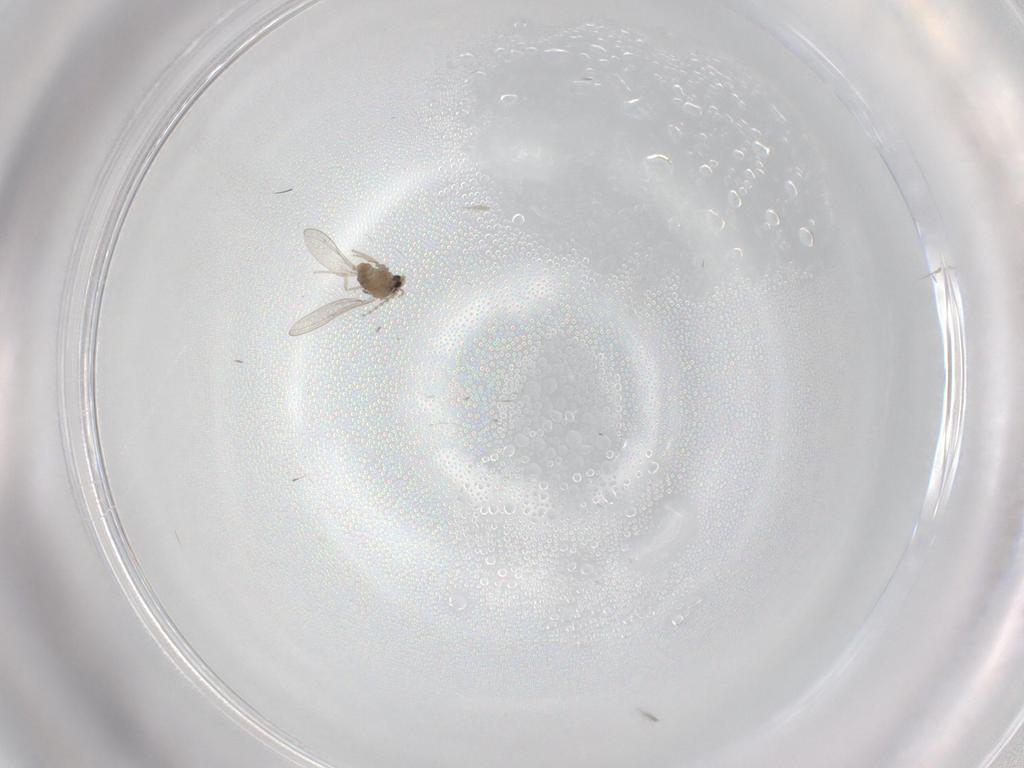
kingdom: Animalia
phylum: Arthropoda
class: Insecta
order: Diptera
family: Cecidomyiidae
